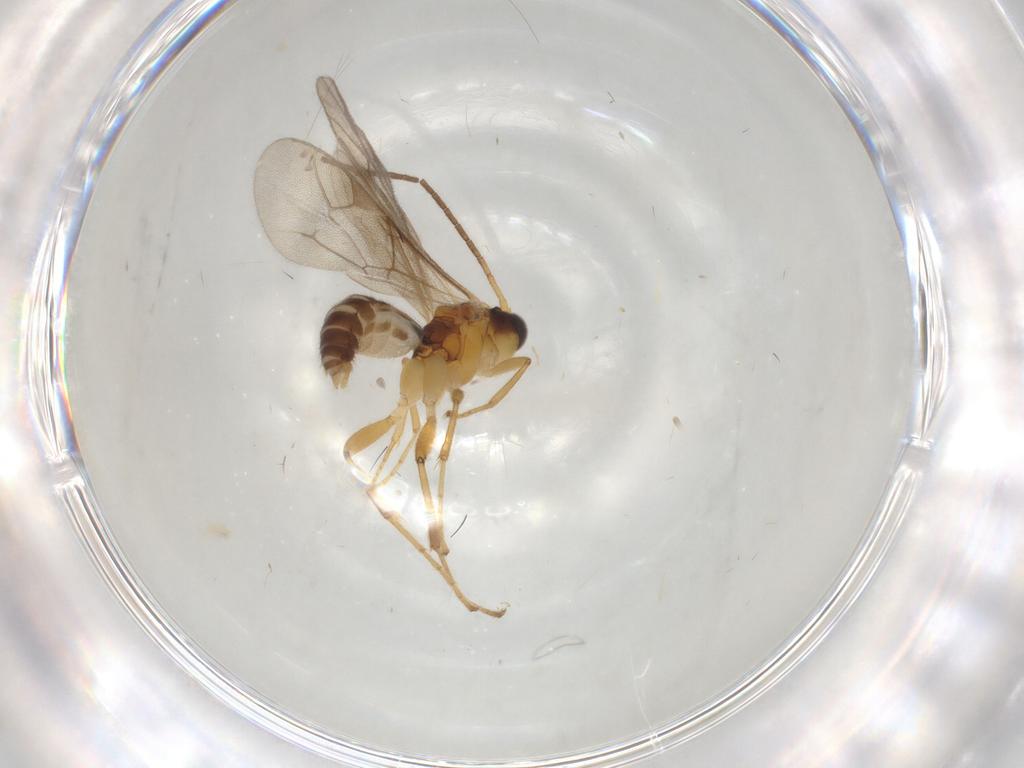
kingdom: Animalia
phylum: Arthropoda
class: Insecta
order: Hymenoptera
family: Ichneumonidae
